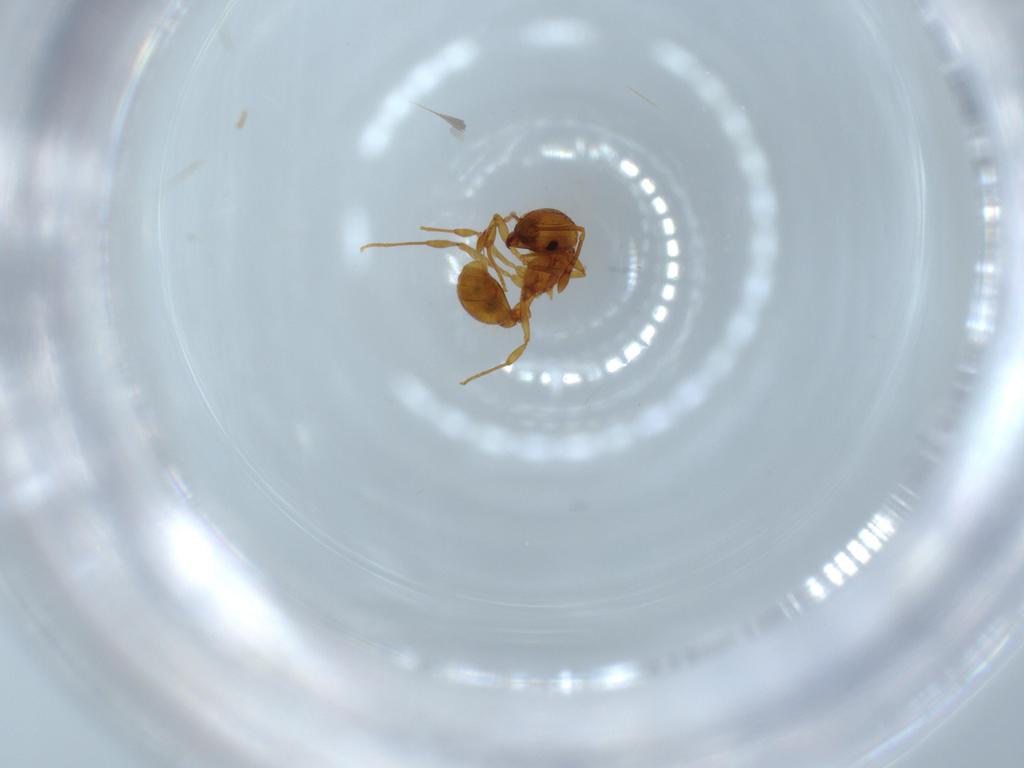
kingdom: Animalia
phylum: Arthropoda
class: Insecta
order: Hymenoptera
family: Formicidae
